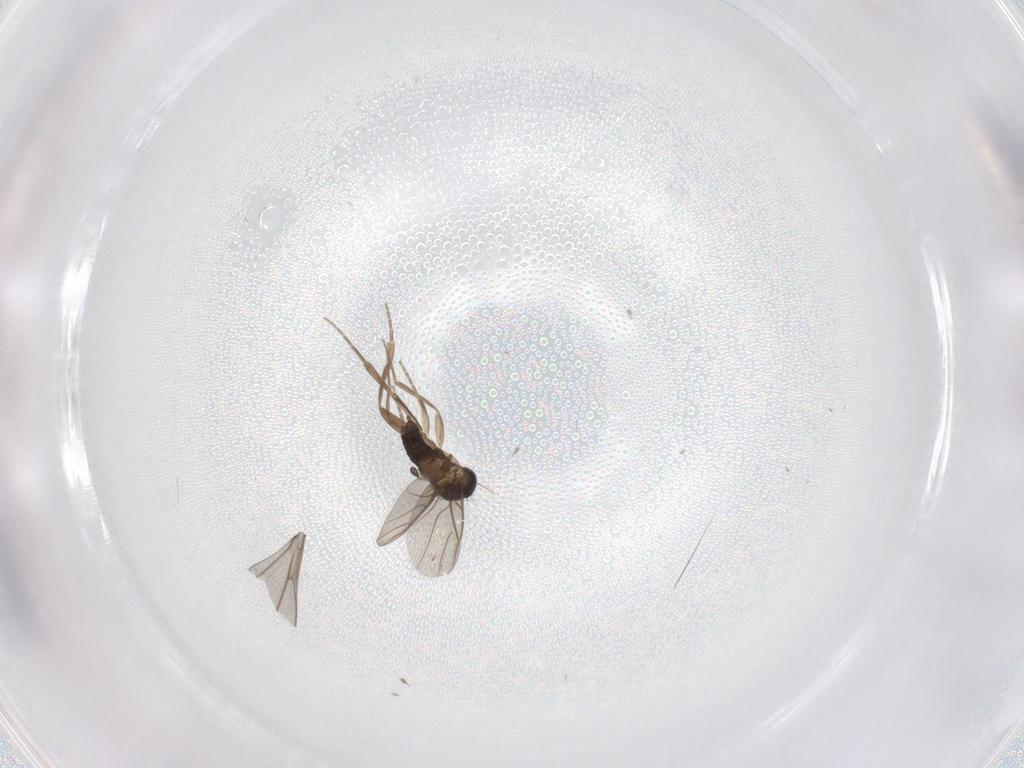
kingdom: Animalia
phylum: Arthropoda
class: Insecta
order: Diptera
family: Phoridae
